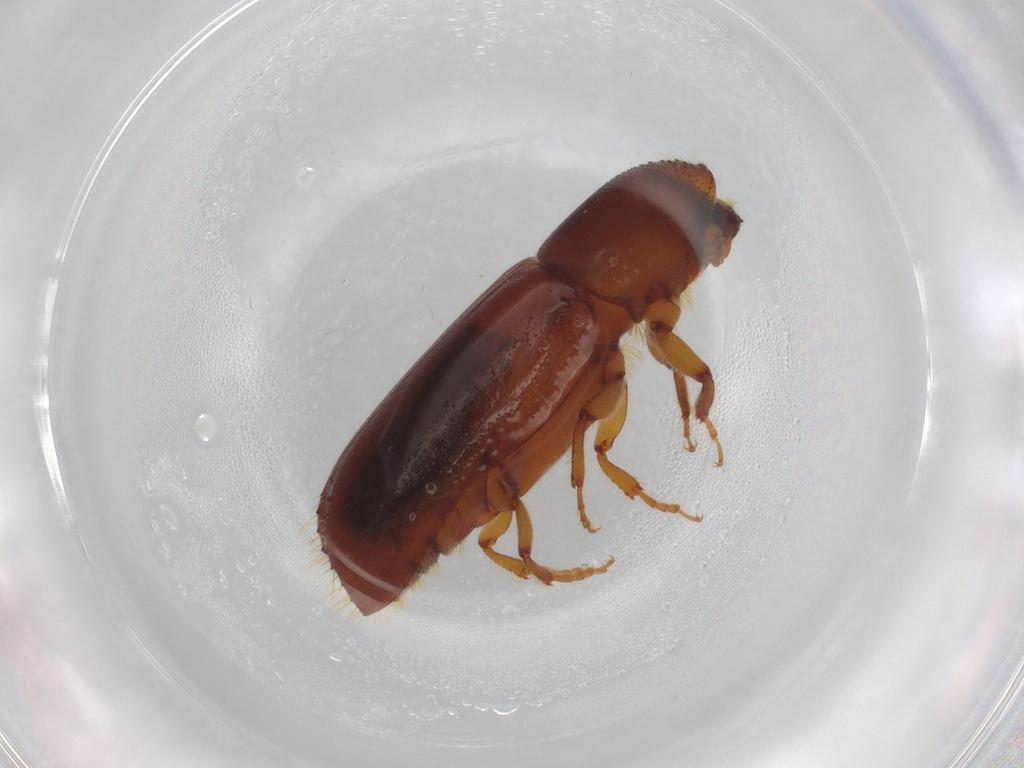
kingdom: Animalia
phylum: Arthropoda
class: Insecta
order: Coleoptera
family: Curculionidae
